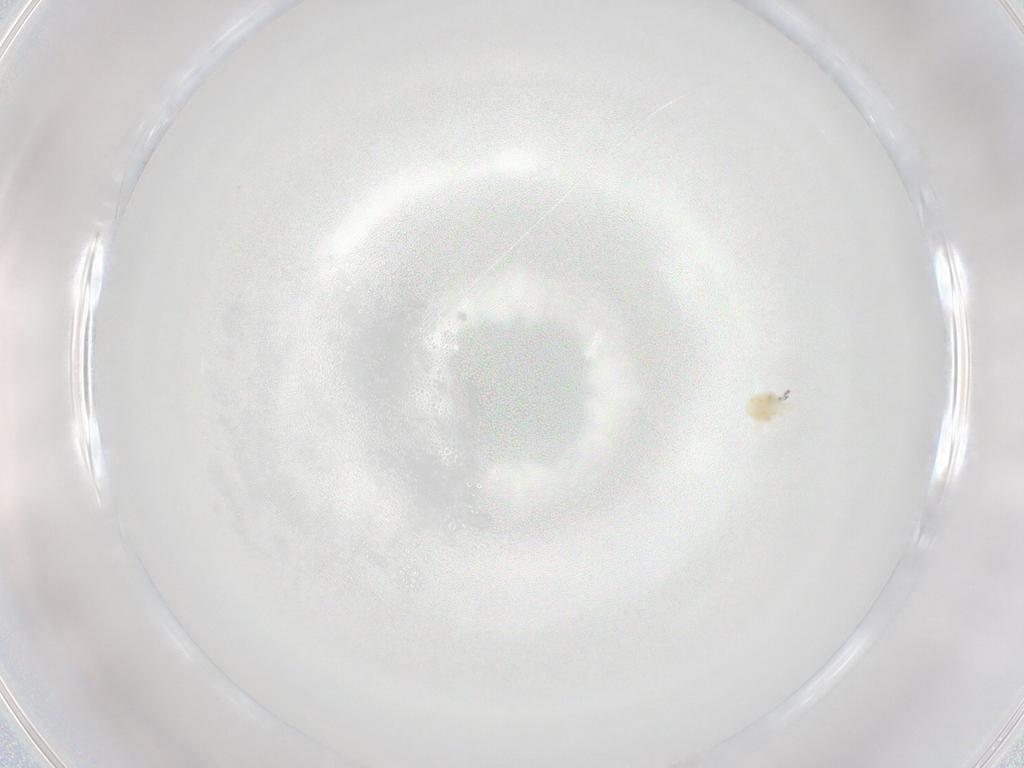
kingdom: Animalia
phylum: Arthropoda
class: Arachnida
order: Trombidiformes
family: Eupodidae
